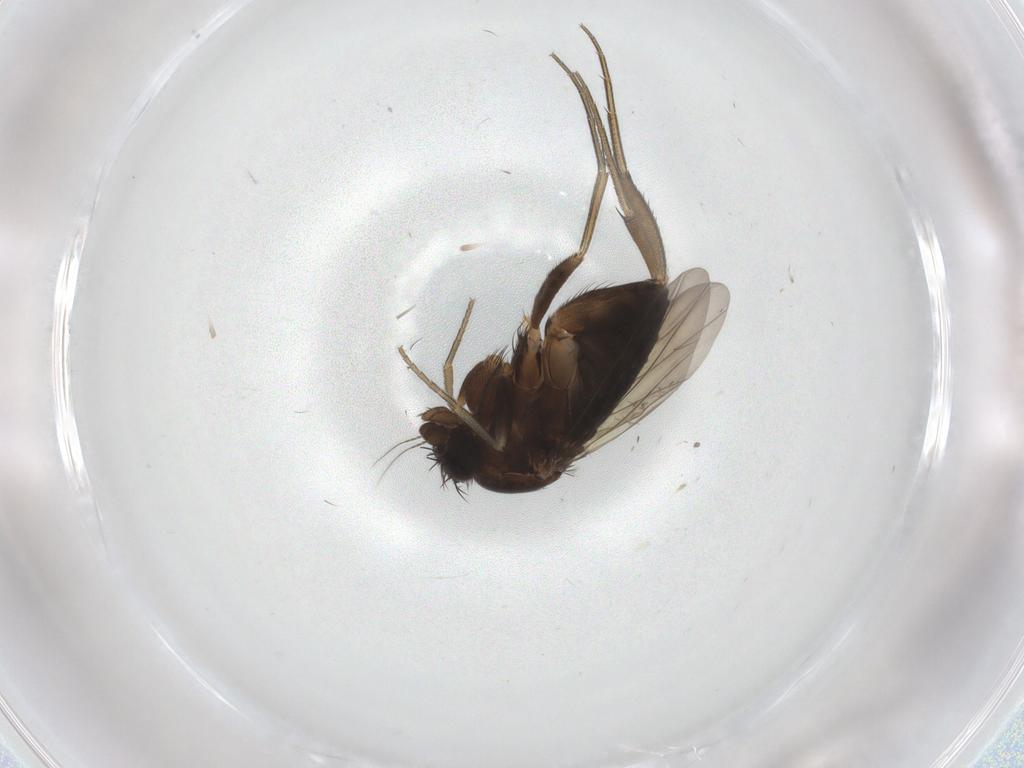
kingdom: Animalia
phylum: Arthropoda
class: Insecta
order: Diptera
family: Phoridae
